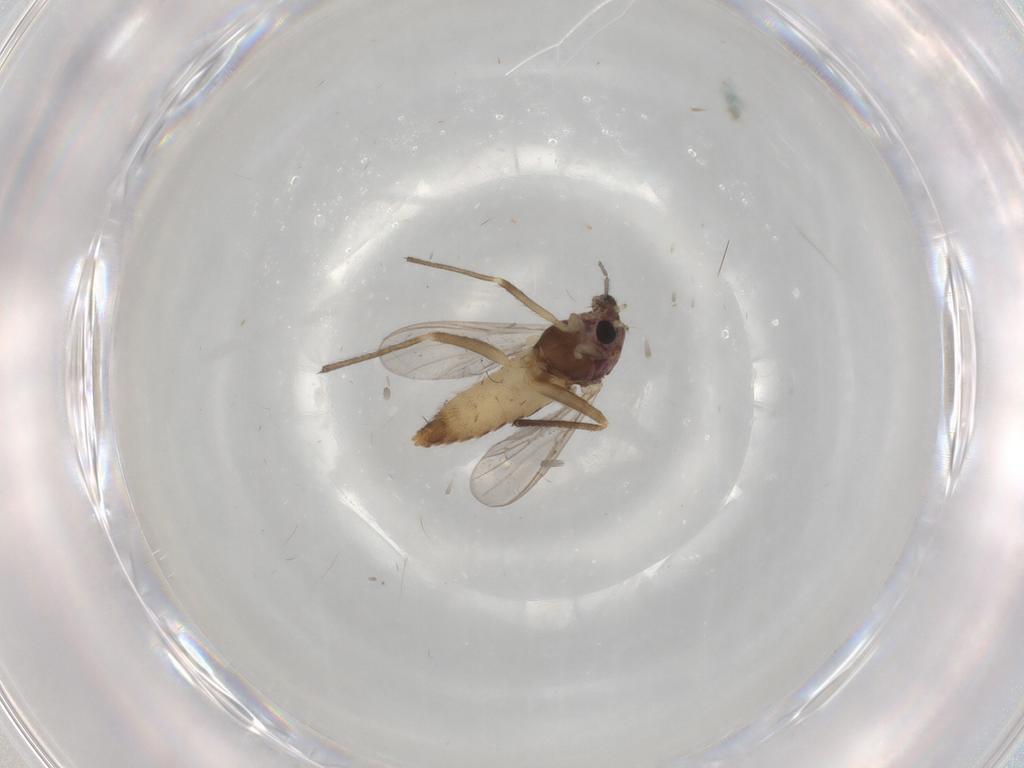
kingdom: Animalia
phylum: Arthropoda
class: Insecta
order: Diptera
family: Chironomidae
